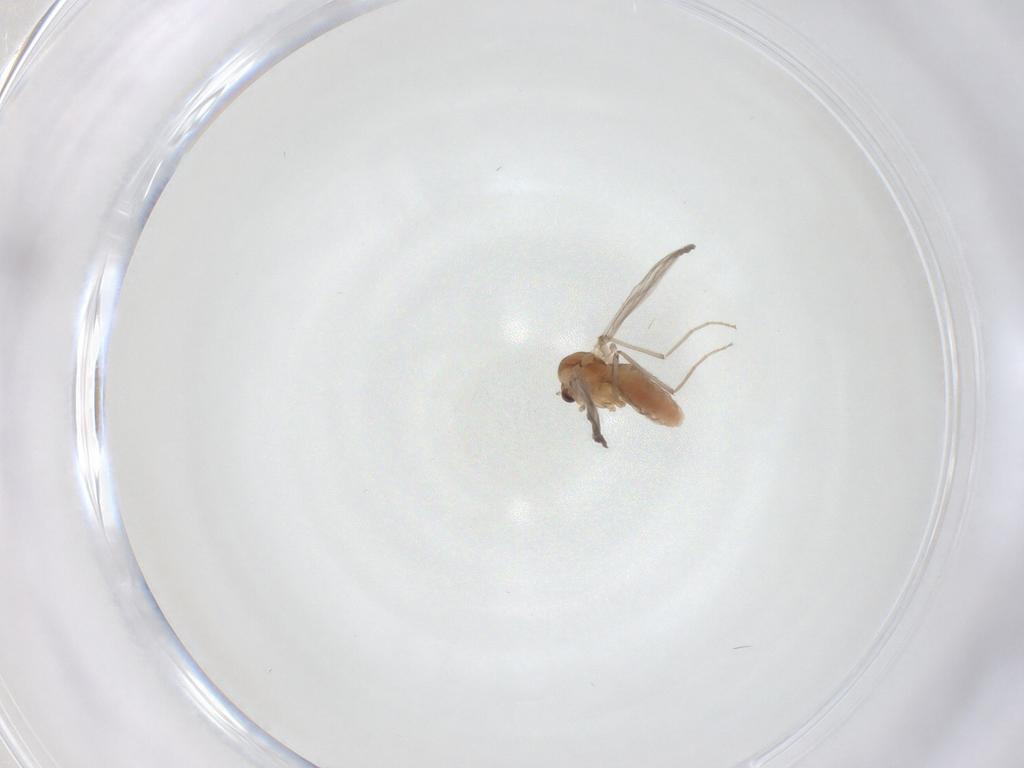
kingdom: Animalia
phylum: Arthropoda
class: Insecta
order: Diptera
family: Chironomidae
